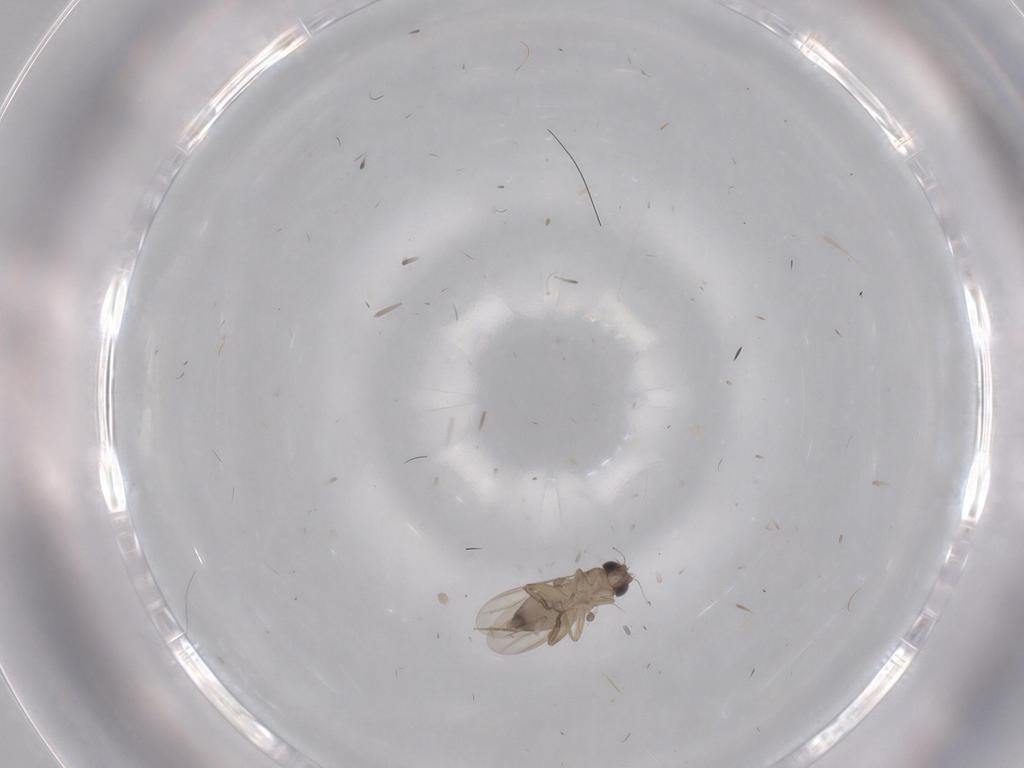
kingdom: Animalia
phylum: Arthropoda
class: Insecta
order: Diptera
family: Phoridae
